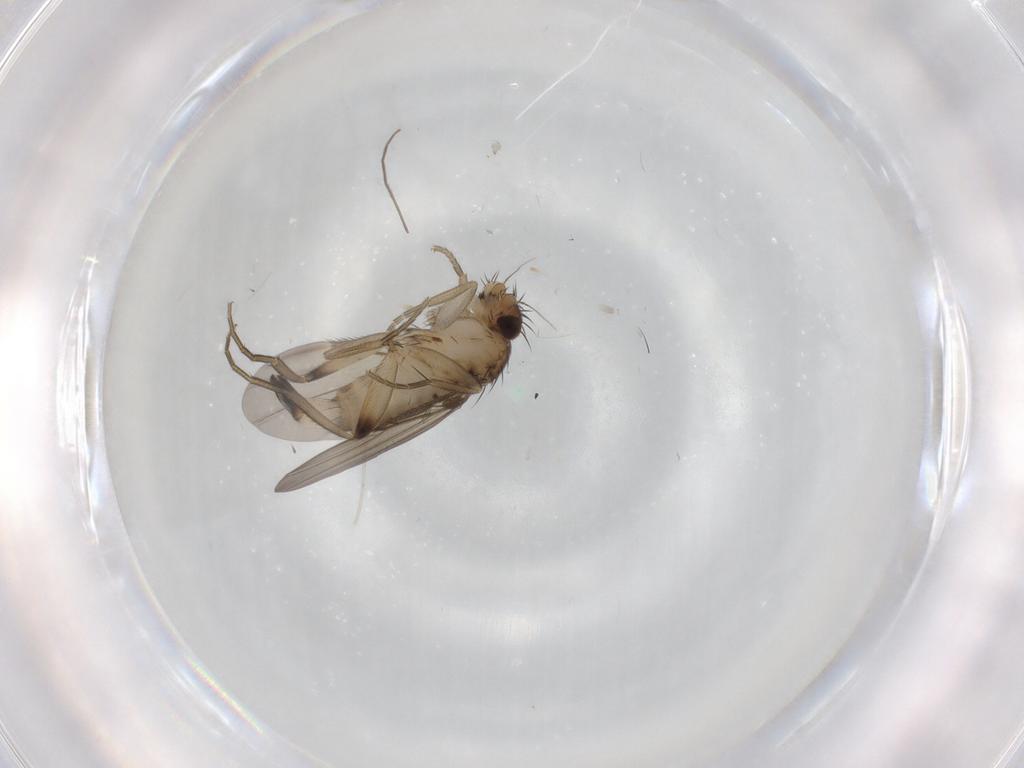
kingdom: Animalia
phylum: Arthropoda
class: Insecta
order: Diptera
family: Phoridae
